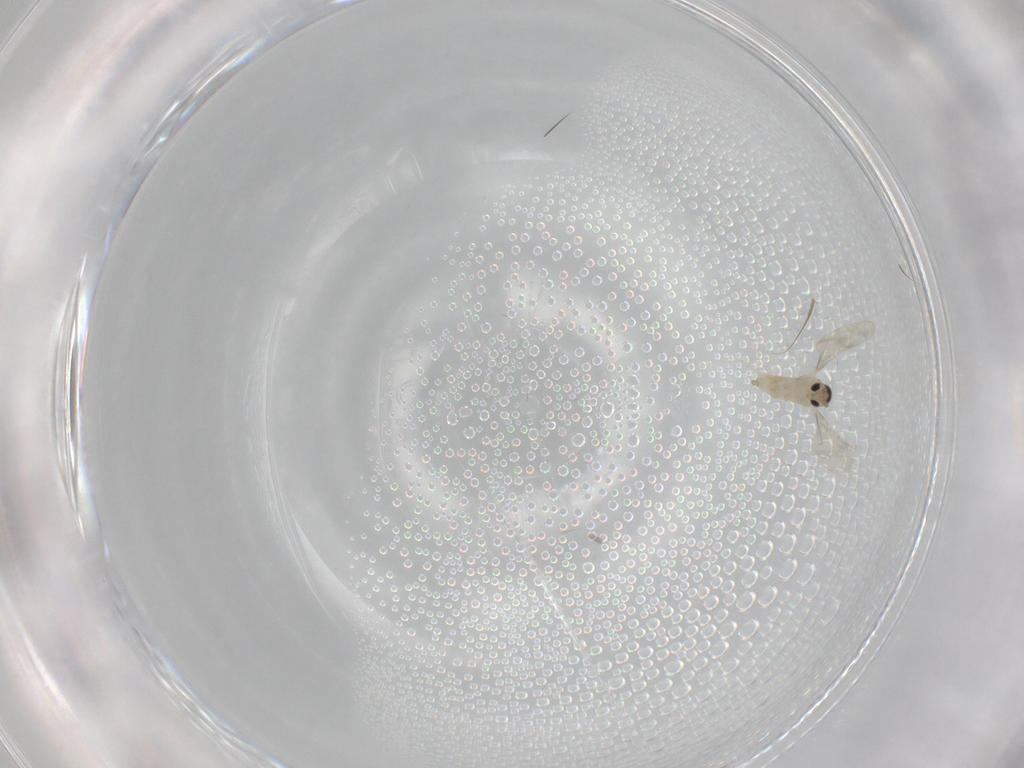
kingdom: Animalia
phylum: Arthropoda
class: Insecta
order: Diptera
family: Cecidomyiidae
